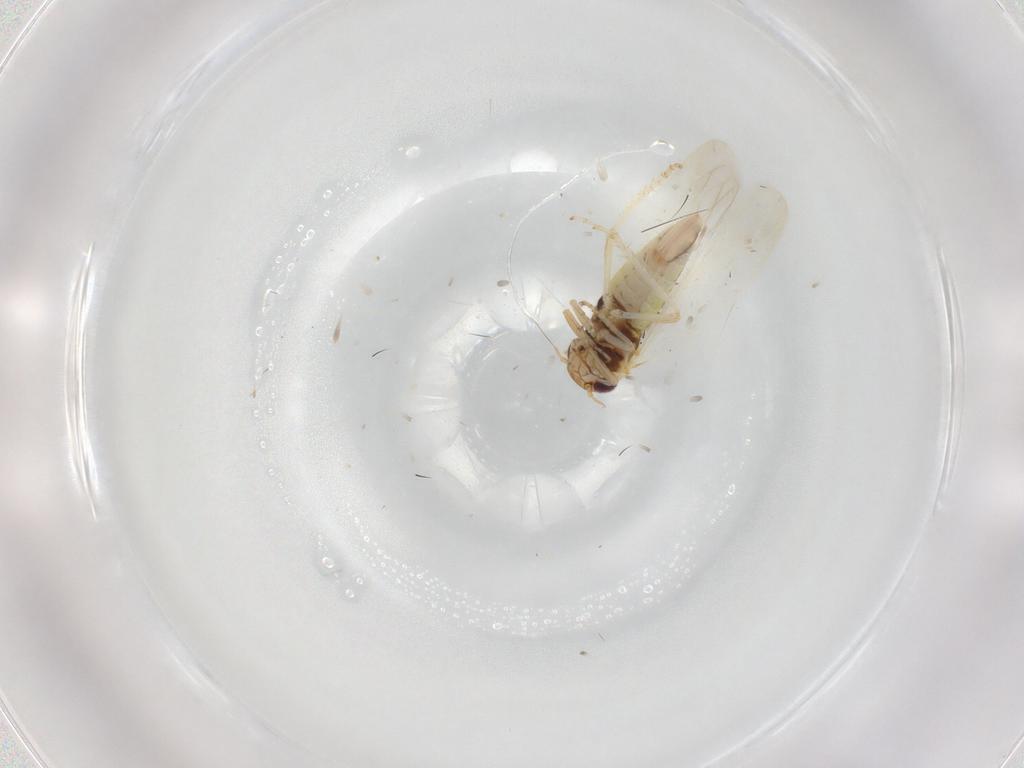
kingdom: Animalia
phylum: Arthropoda
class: Insecta
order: Hemiptera
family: Cicadellidae
